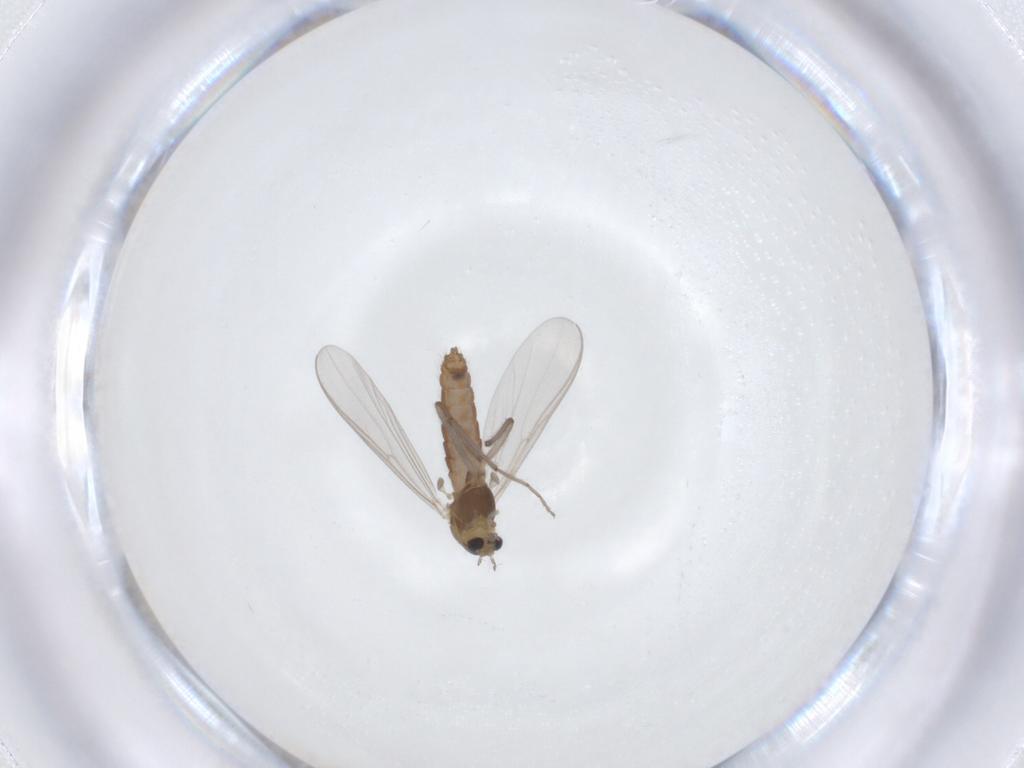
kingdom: Animalia
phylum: Arthropoda
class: Insecta
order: Diptera
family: Chironomidae
